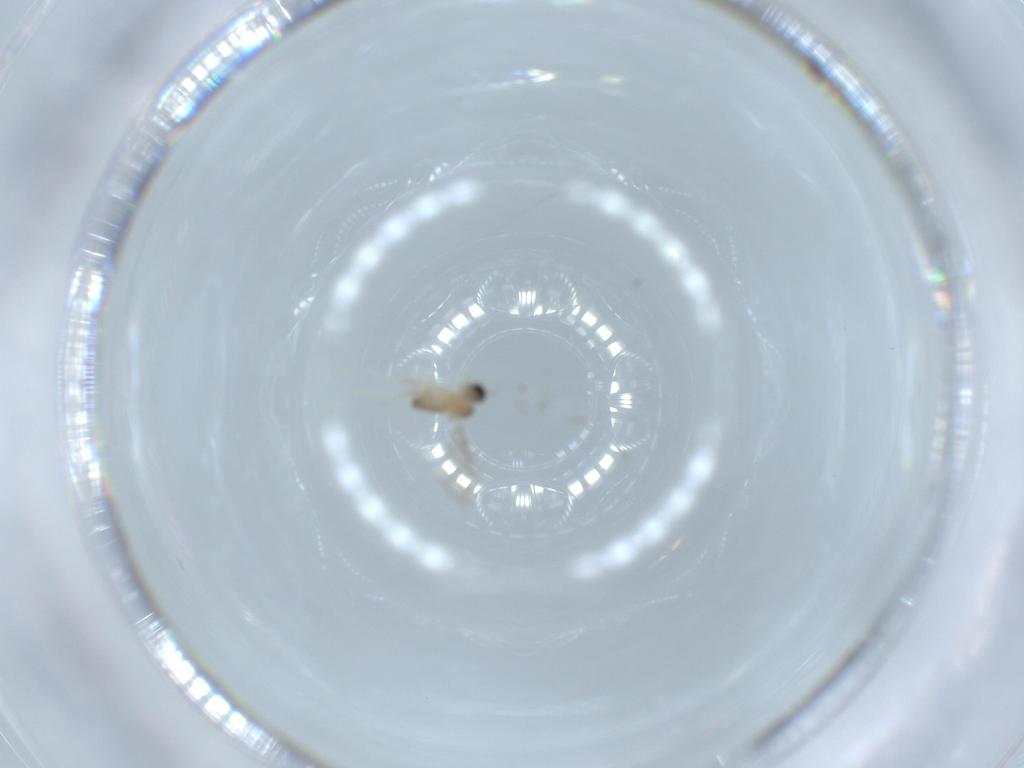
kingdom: Animalia
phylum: Arthropoda
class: Insecta
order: Diptera
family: Cecidomyiidae
